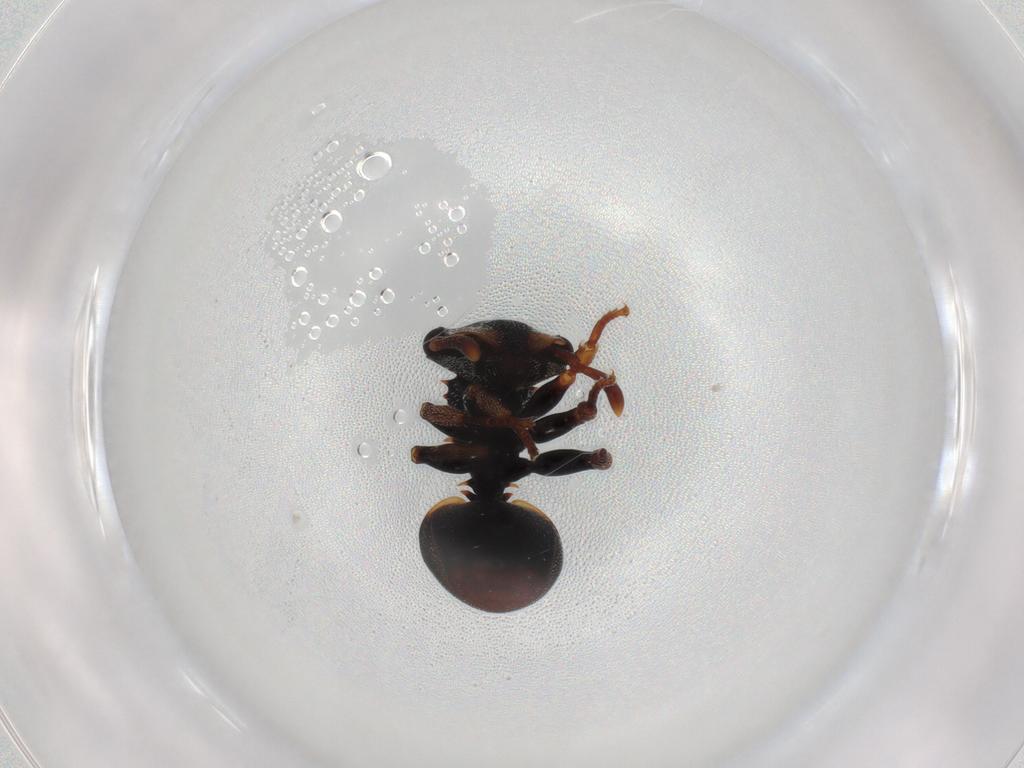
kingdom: Animalia
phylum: Arthropoda
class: Insecta
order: Hymenoptera
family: Formicidae
